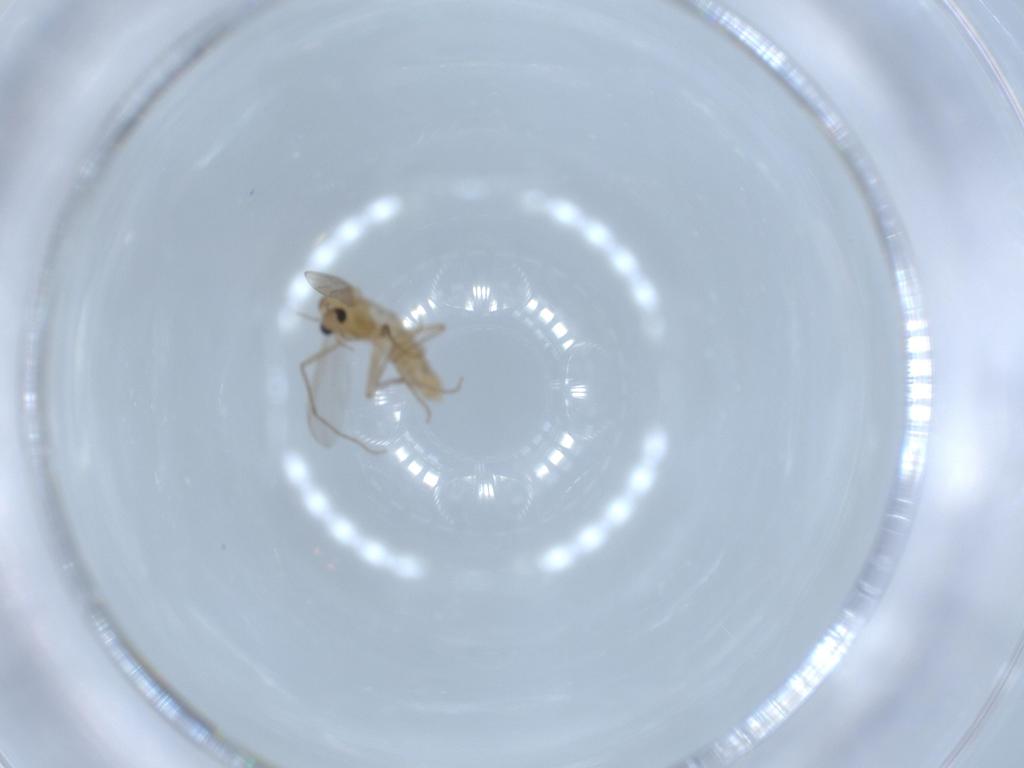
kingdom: Animalia
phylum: Arthropoda
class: Insecta
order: Diptera
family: Chironomidae
